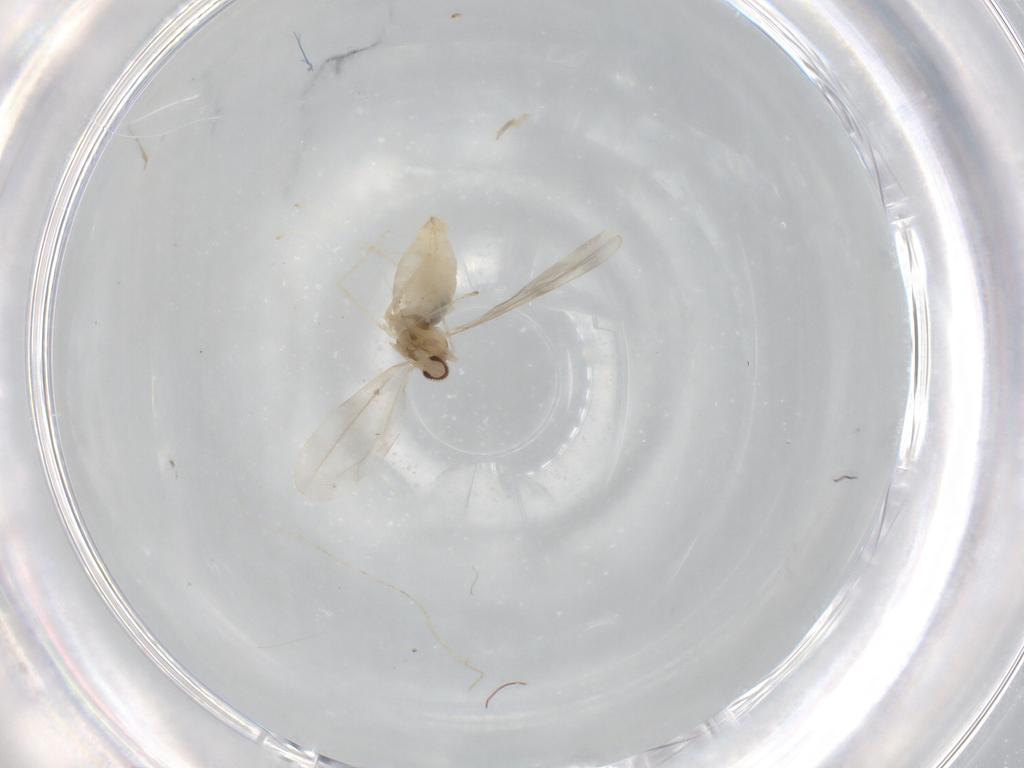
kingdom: Animalia
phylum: Arthropoda
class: Insecta
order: Diptera
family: Cecidomyiidae
